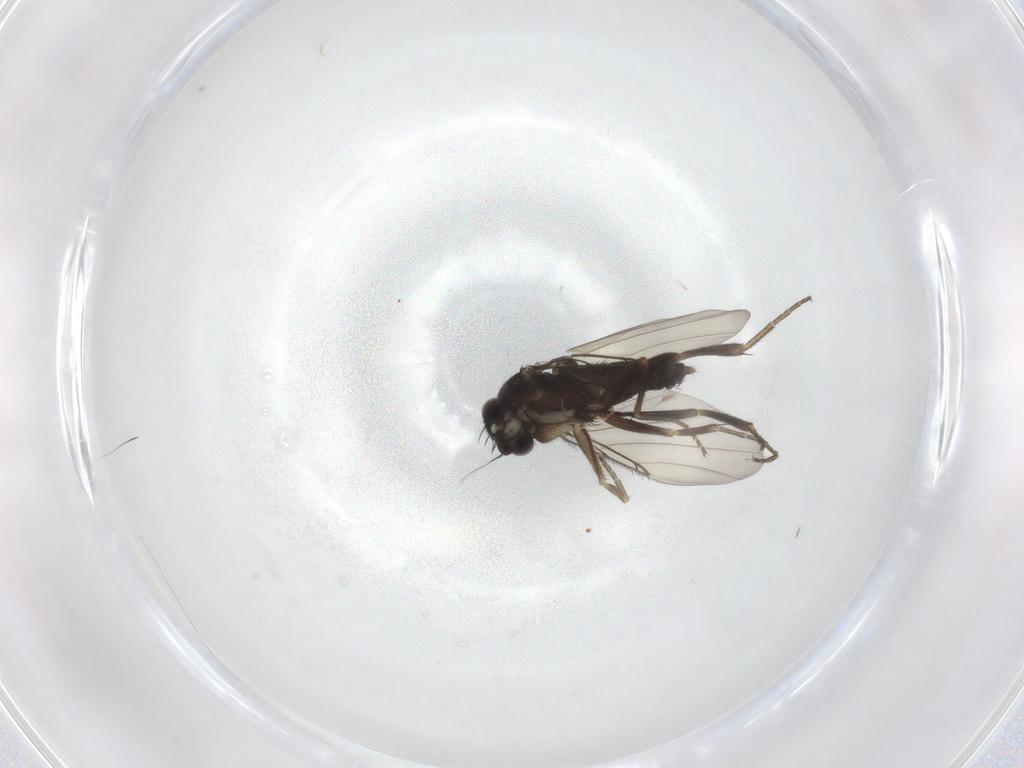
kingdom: Animalia
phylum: Arthropoda
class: Insecta
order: Diptera
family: Phoridae
